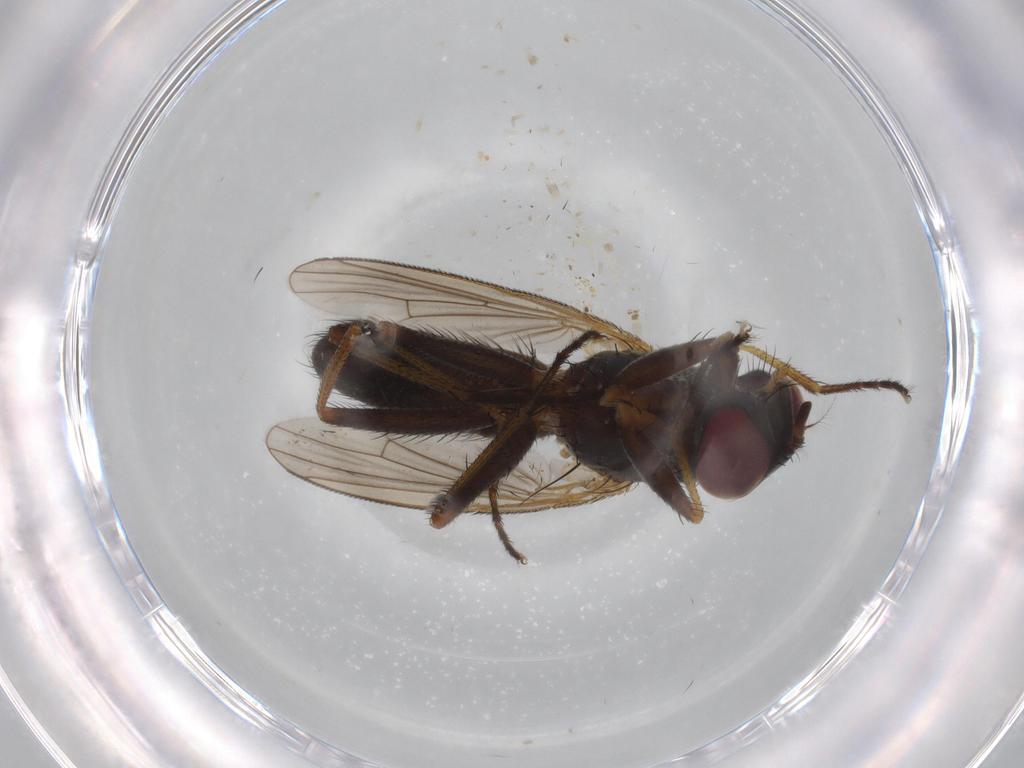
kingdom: Animalia
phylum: Arthropoda
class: Insecta
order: Diptera
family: Muscidae
